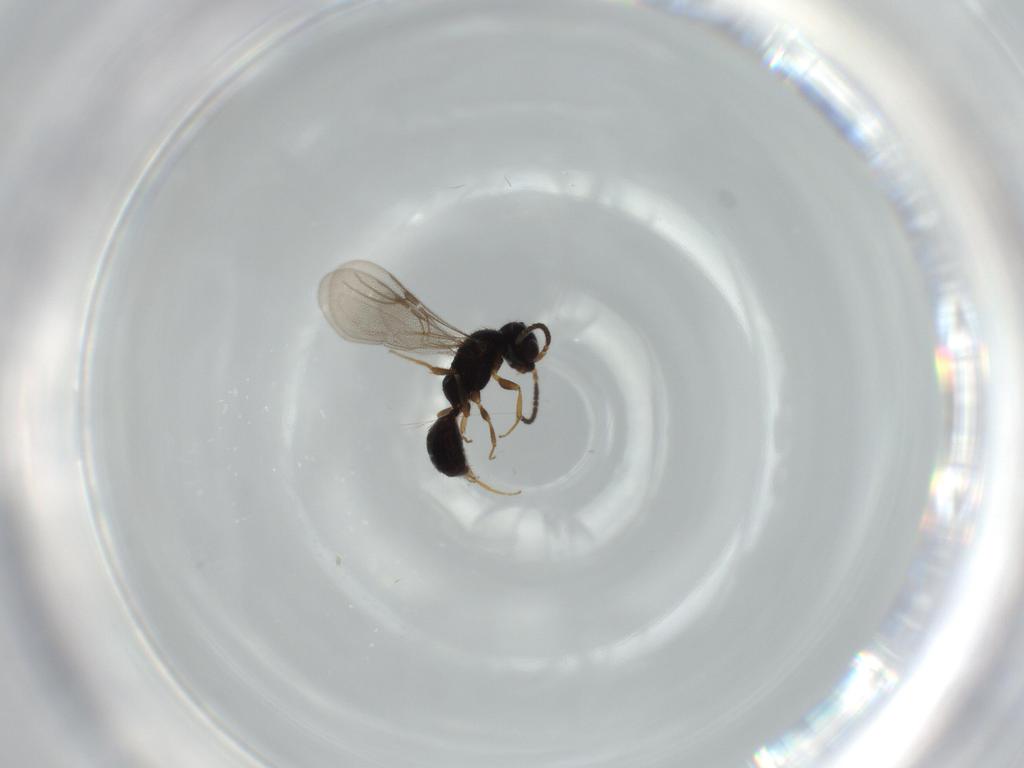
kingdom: Animalia
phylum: Arthropoda
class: Insecta
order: Hymenoptera
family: Bethylidae
